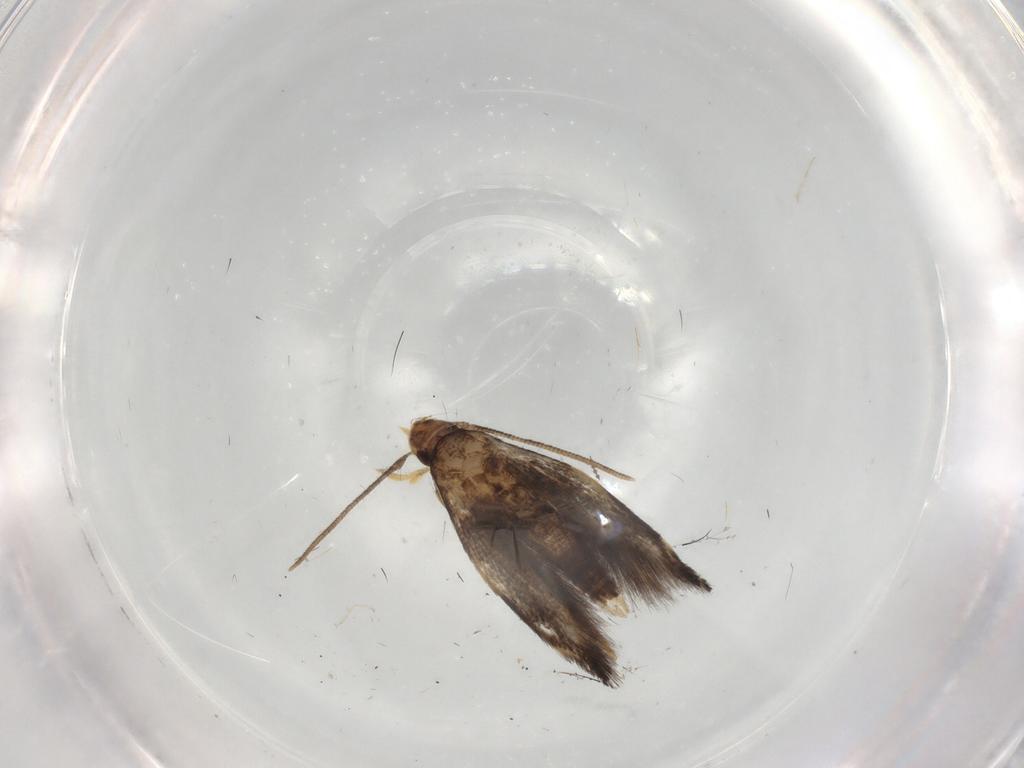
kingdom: Animalia
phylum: Arthropoda
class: Insecta
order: Lepidoptera
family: Gelechiidae
